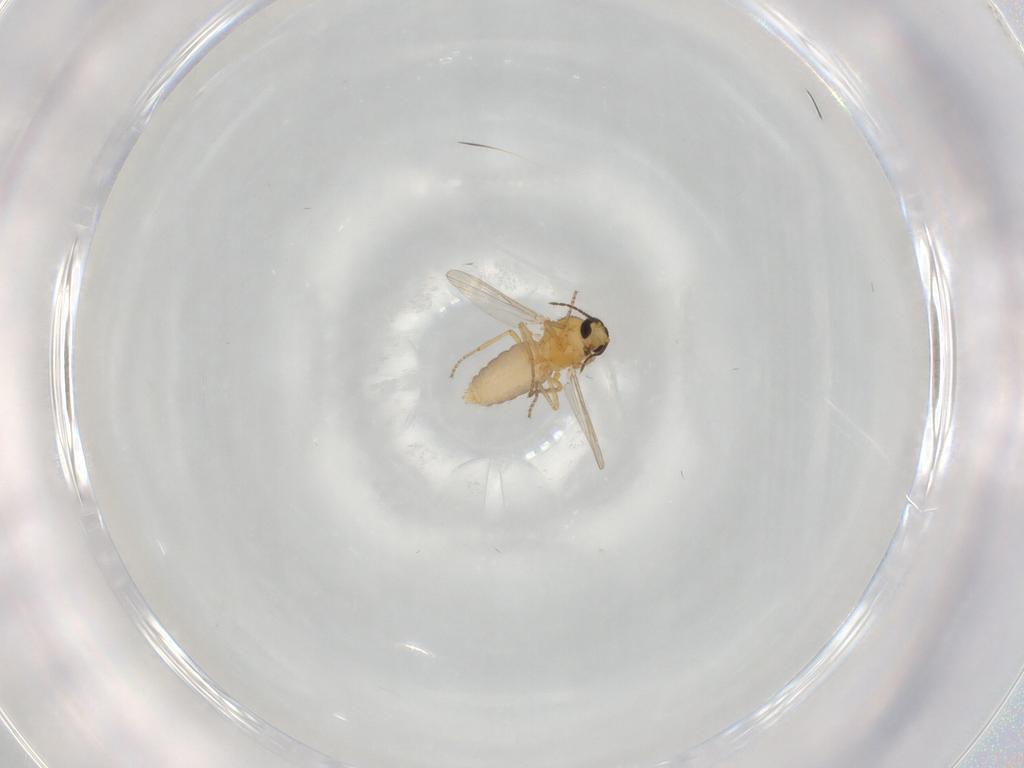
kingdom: Animalia
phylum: Arthropoda
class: Insecta
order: Diptera
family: Ceratopogonidae
